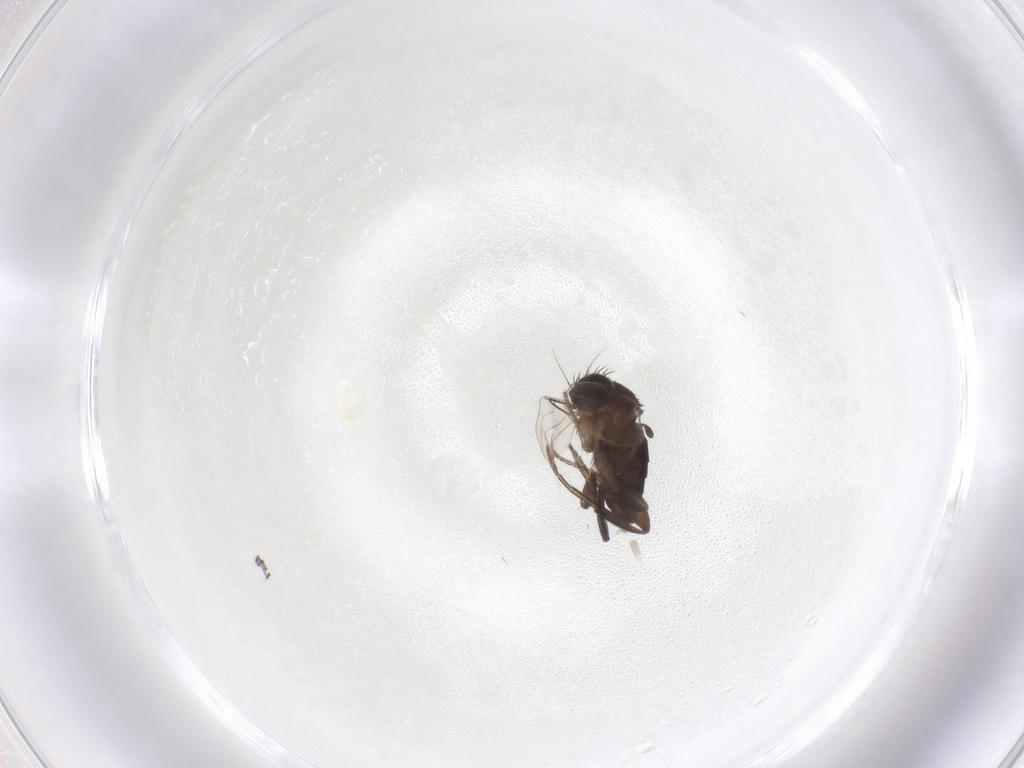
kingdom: Animalia
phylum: Arthropoda
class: Insecta
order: Diptera
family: Phoridae
